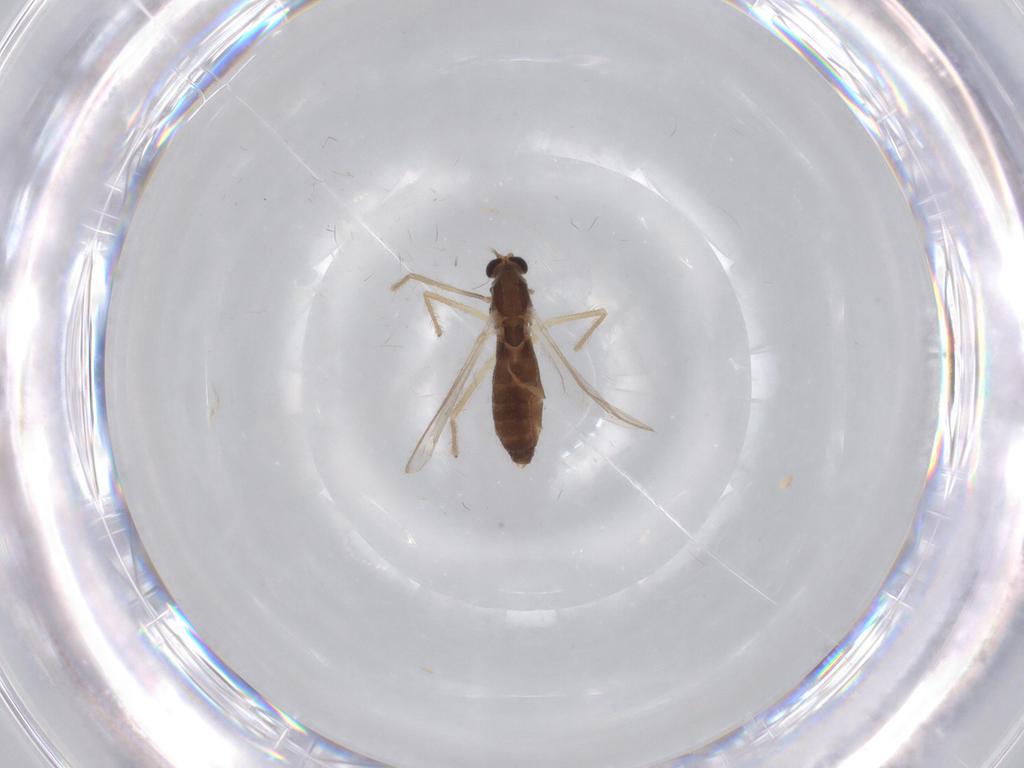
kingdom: Animalia
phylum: Arthropoda
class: Insecta
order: Diptera
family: Chironomidae
